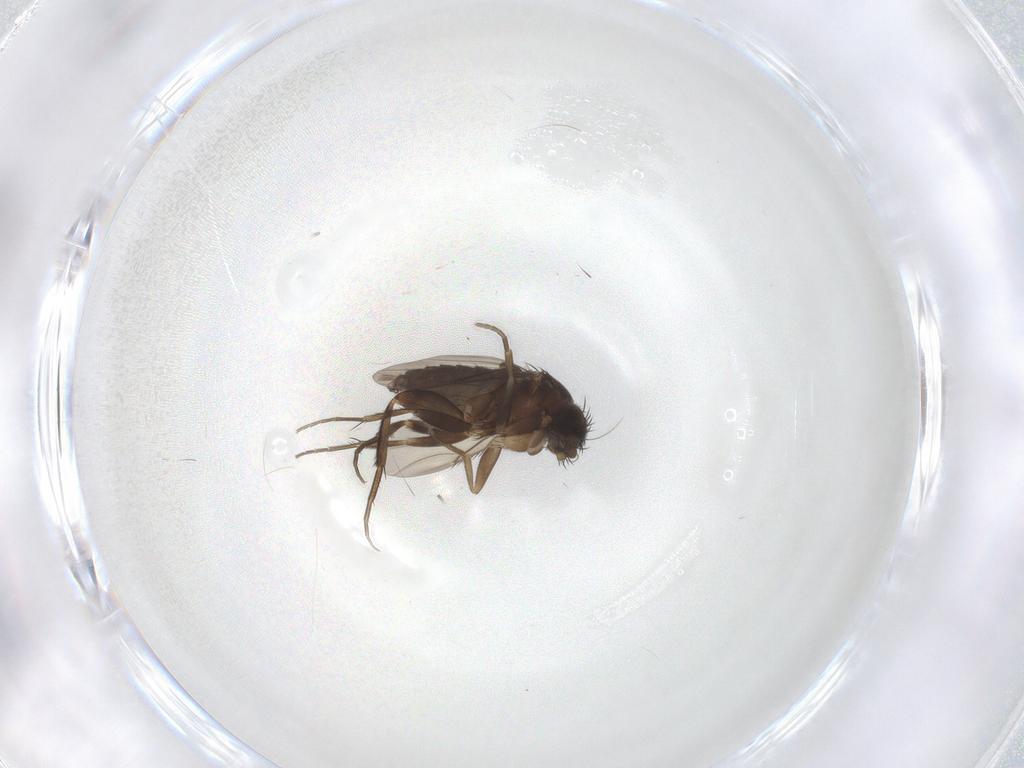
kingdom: Animalia
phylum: Arthropoda
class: Insecta
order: Diptera
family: Phoridae
